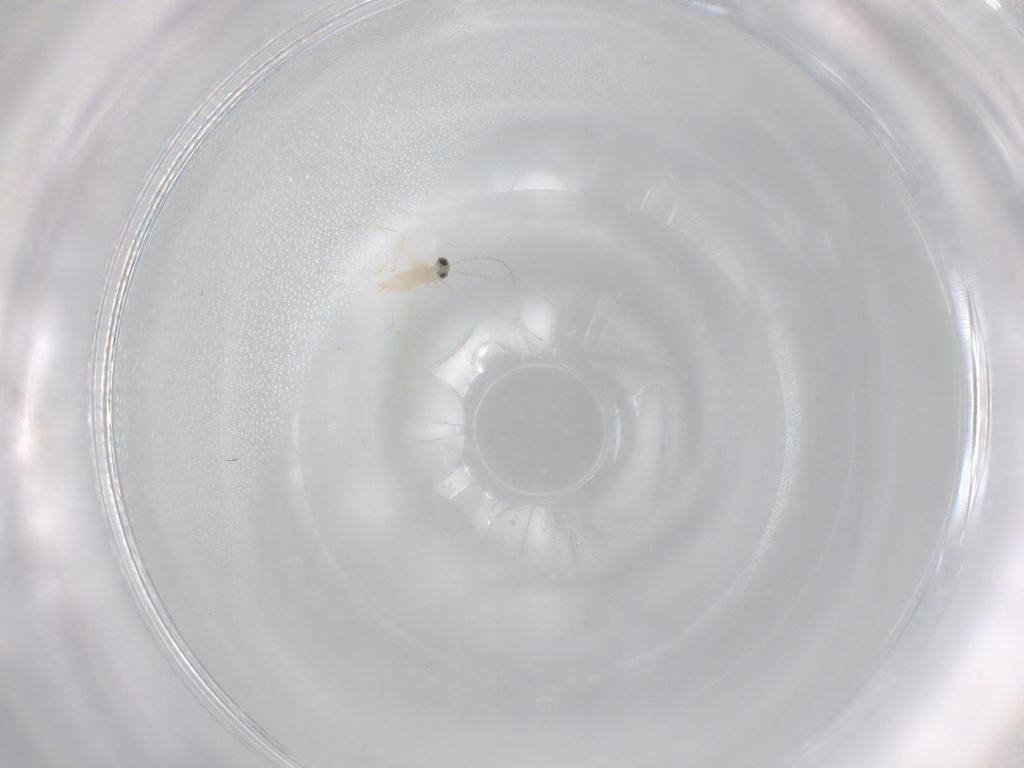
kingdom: Animalia
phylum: Arthropoda
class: Insecta
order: Diptera
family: Cecidomyiidae
